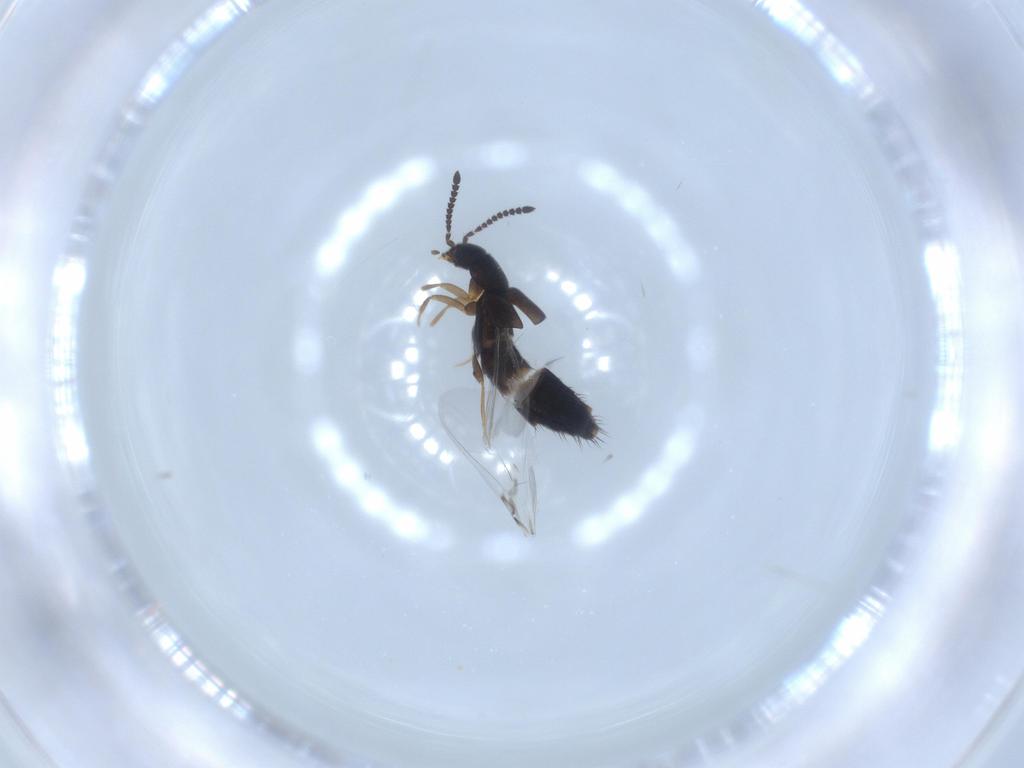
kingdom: Animalia
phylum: Arthropoda
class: Insecta
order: Coleoptera
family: Staphylinidae
